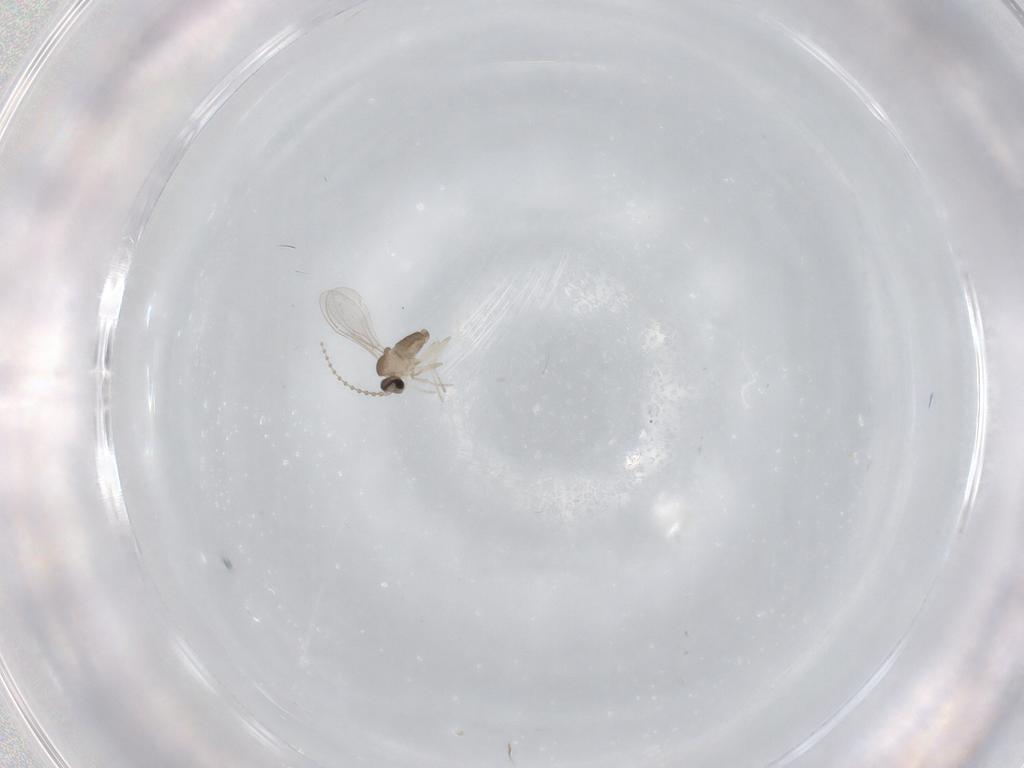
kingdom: Animalia
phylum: Arthropoda
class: Insecta
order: Diptera
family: Cecidomyiidae
